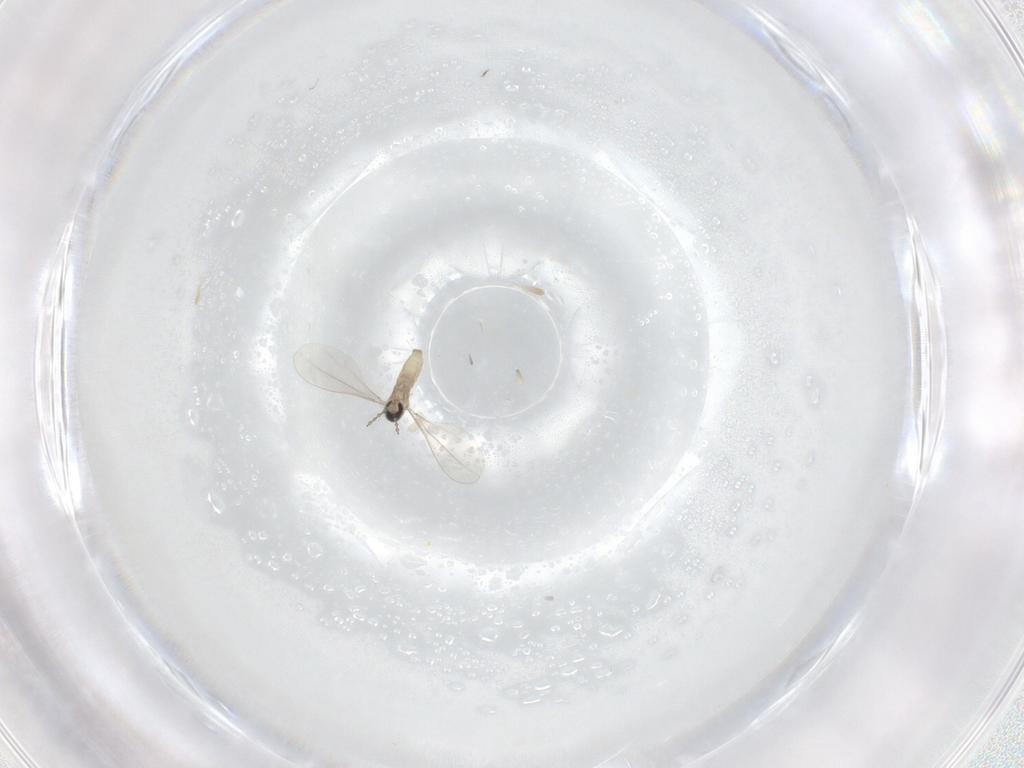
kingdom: Animalia
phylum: Arthropoda
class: Insecta
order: Diptera
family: Cecidomyiidae
